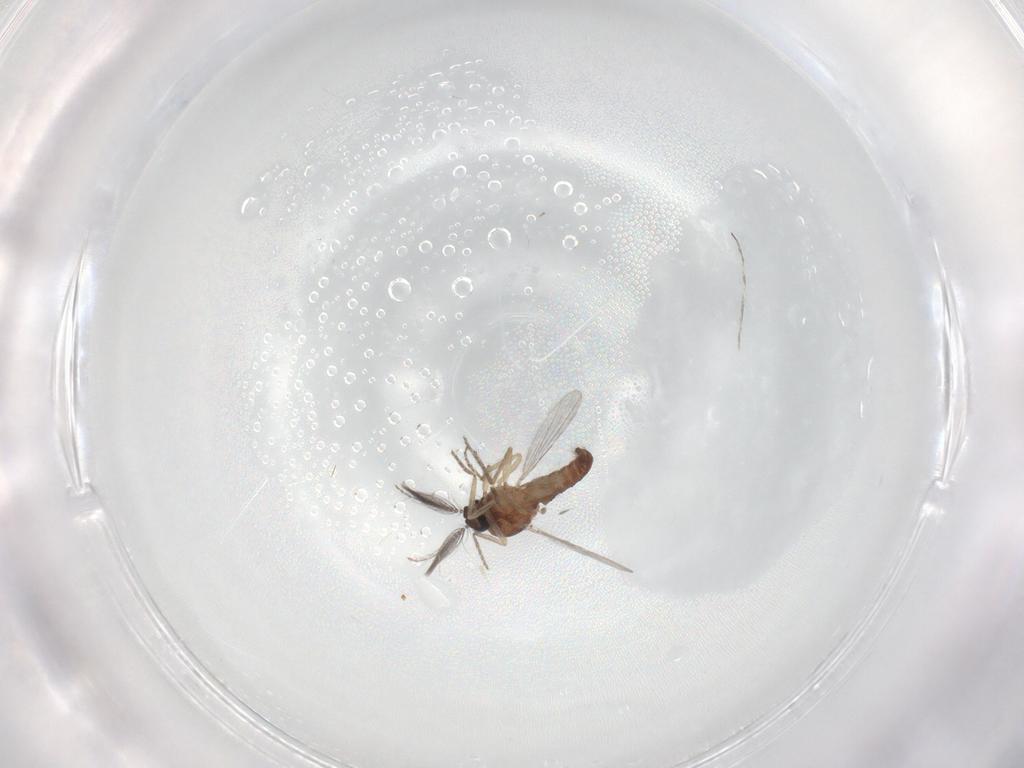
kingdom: Animalia
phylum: Arthropoda
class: Insecta
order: Diptera
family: Ceratopogonidae
